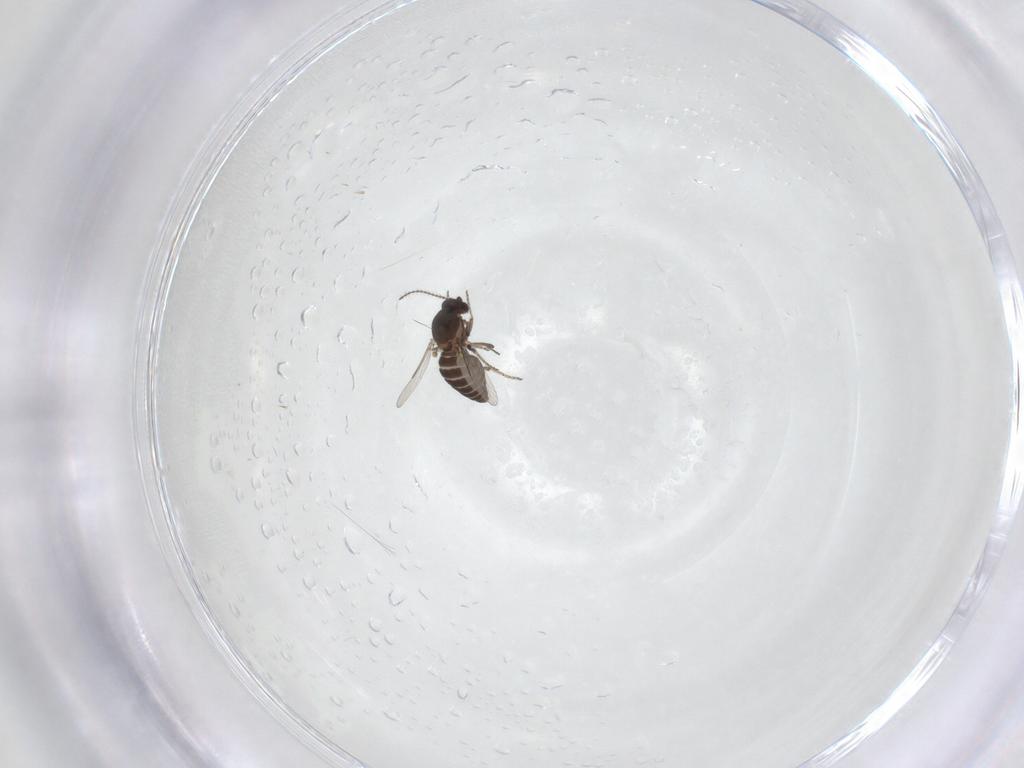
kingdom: Animalia
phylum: Arthropoda
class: Insecta
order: Diptera
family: Ceratopogonidae
